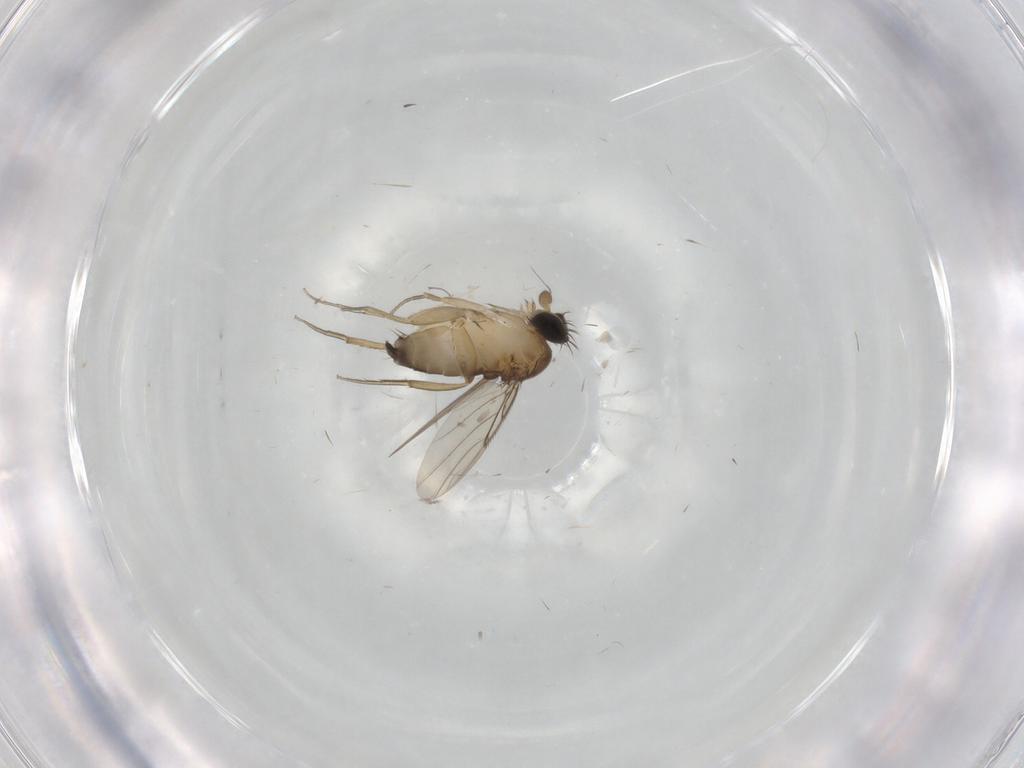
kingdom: Animalia
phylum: Arthropoda
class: Insecta
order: Diptera
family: Phoridae
